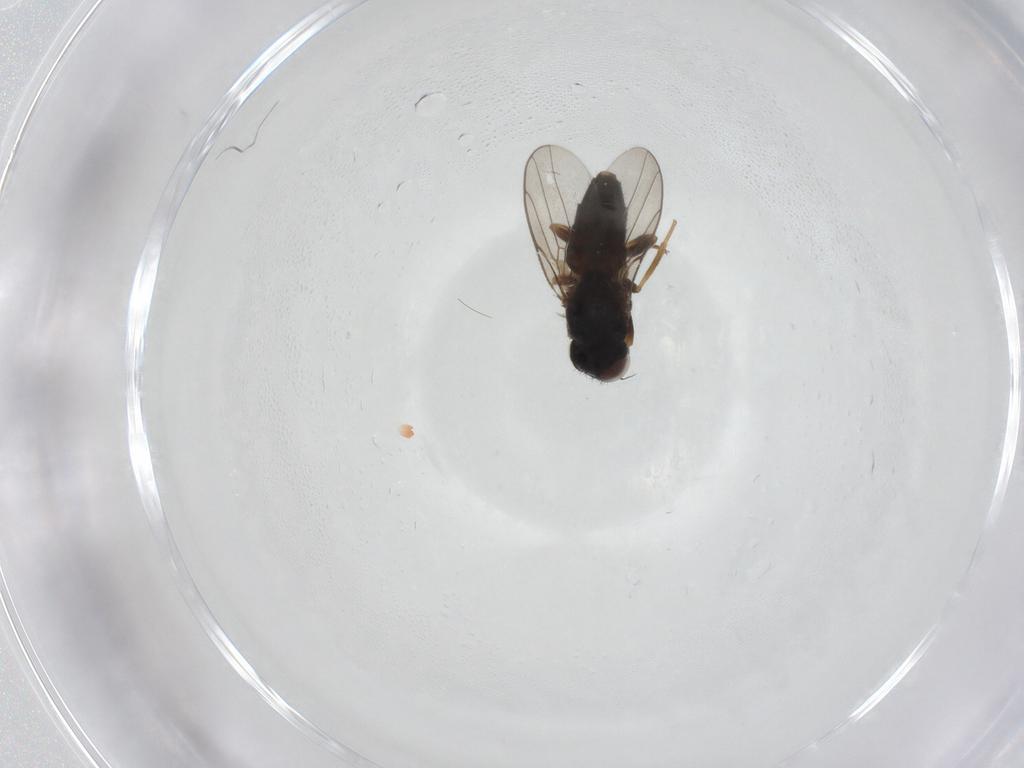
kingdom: Animalia
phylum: Arthropoda
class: Insecta
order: Diptera
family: Chloropidae
